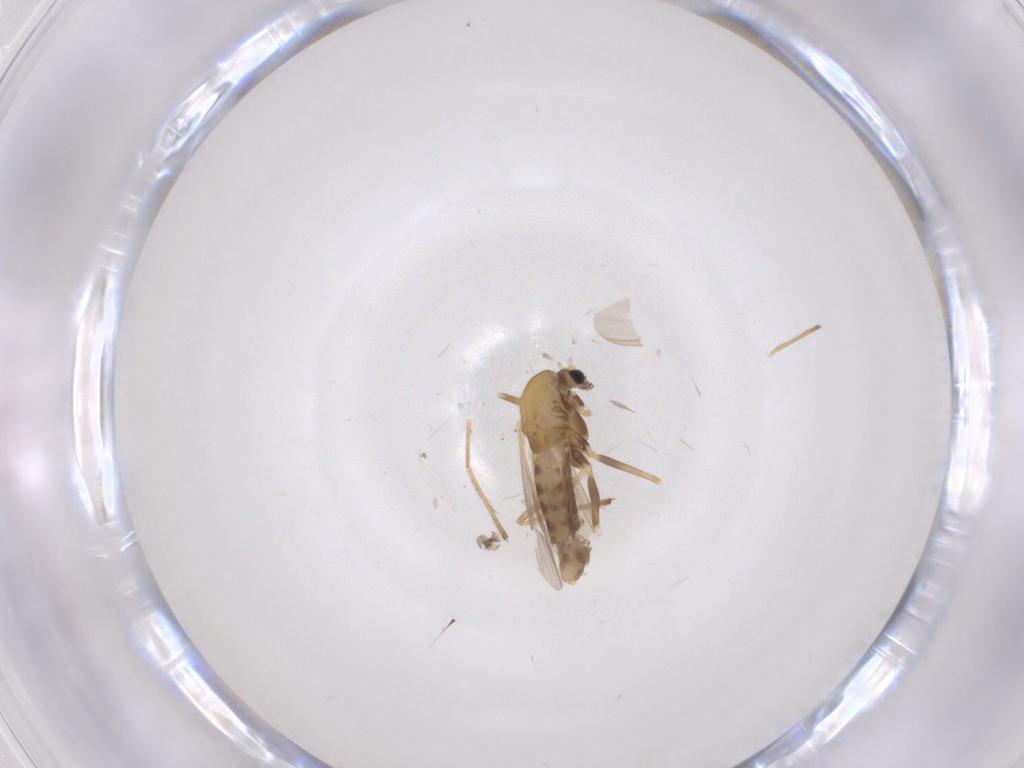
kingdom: Animalia
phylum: Arthropoda
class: Insecta
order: Diptera
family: Chironomidae
